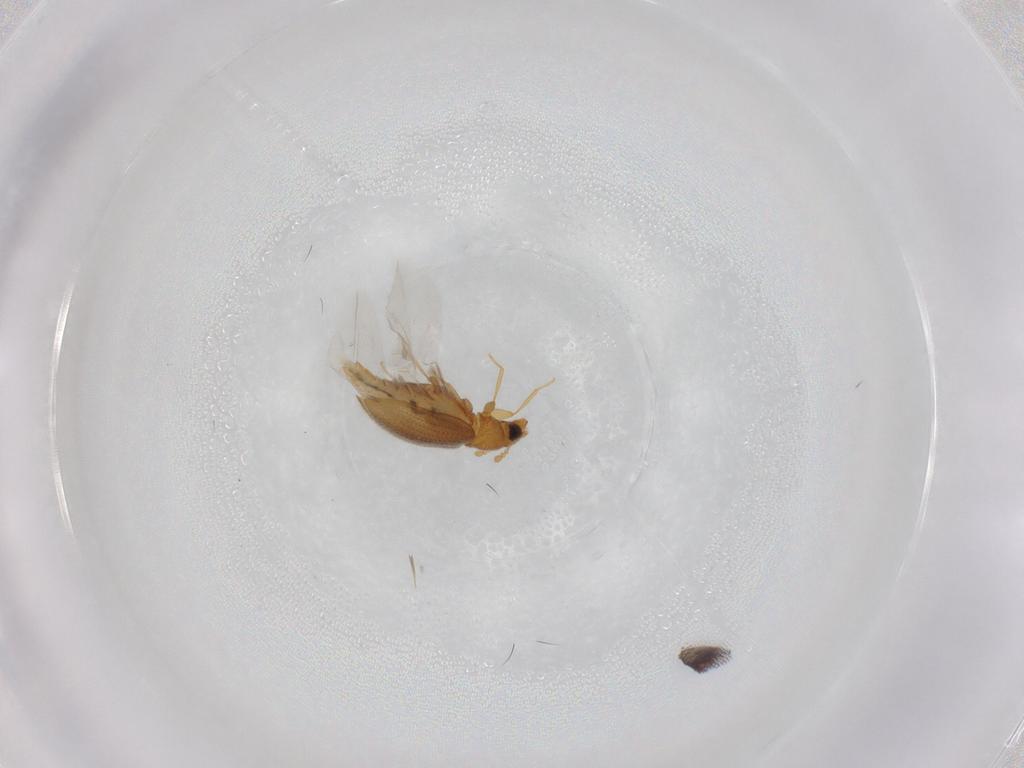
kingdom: Animalia
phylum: Arthropoda
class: Insecta
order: Coleoptera
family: Latridiidae
